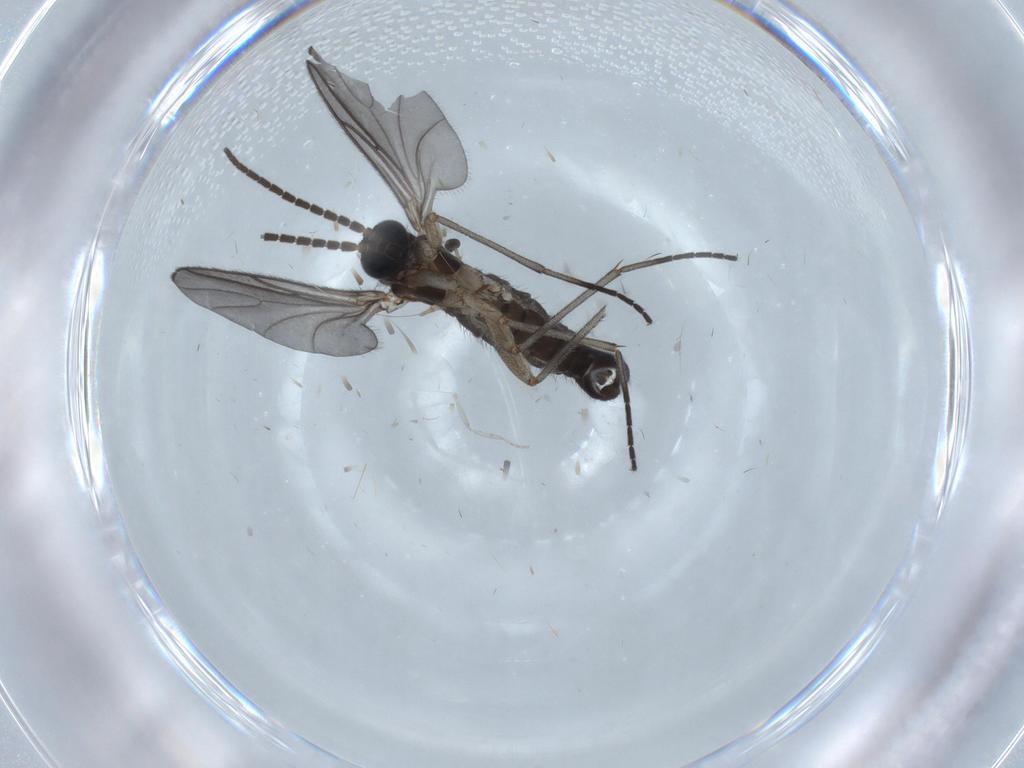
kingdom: Animalia
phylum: Arthropoda
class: Insecta
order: Diptera
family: Sciaridae
